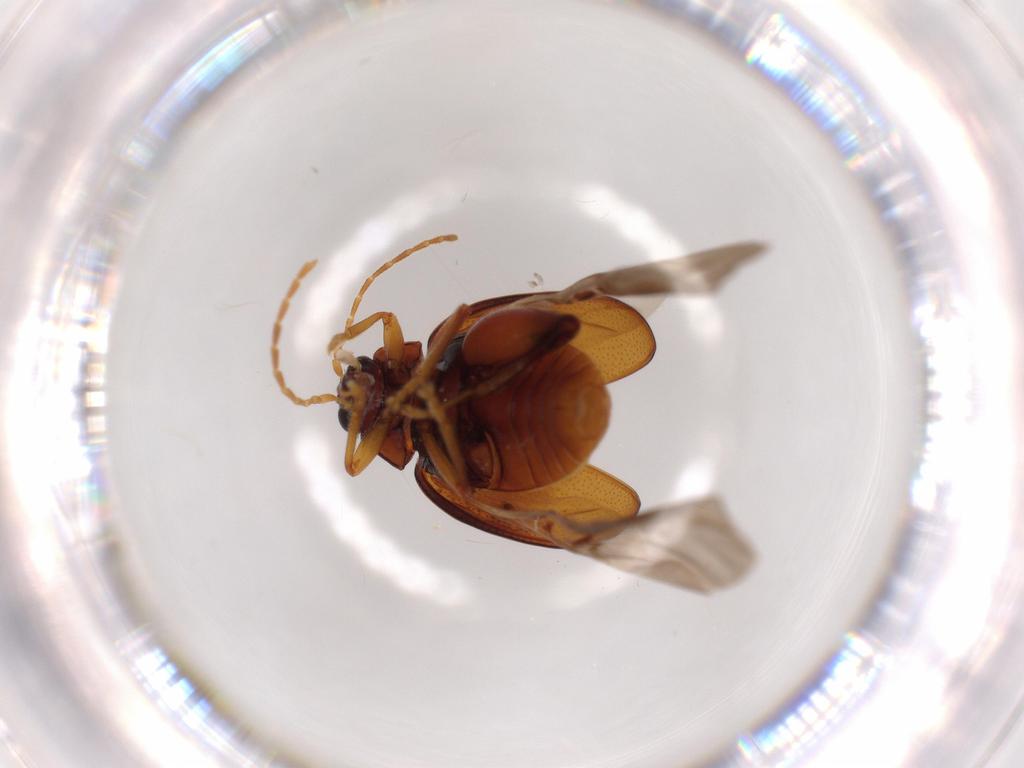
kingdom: Animalia
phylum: Arthropoda
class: Insecta
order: Coleoptera
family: Chrysomelidae
